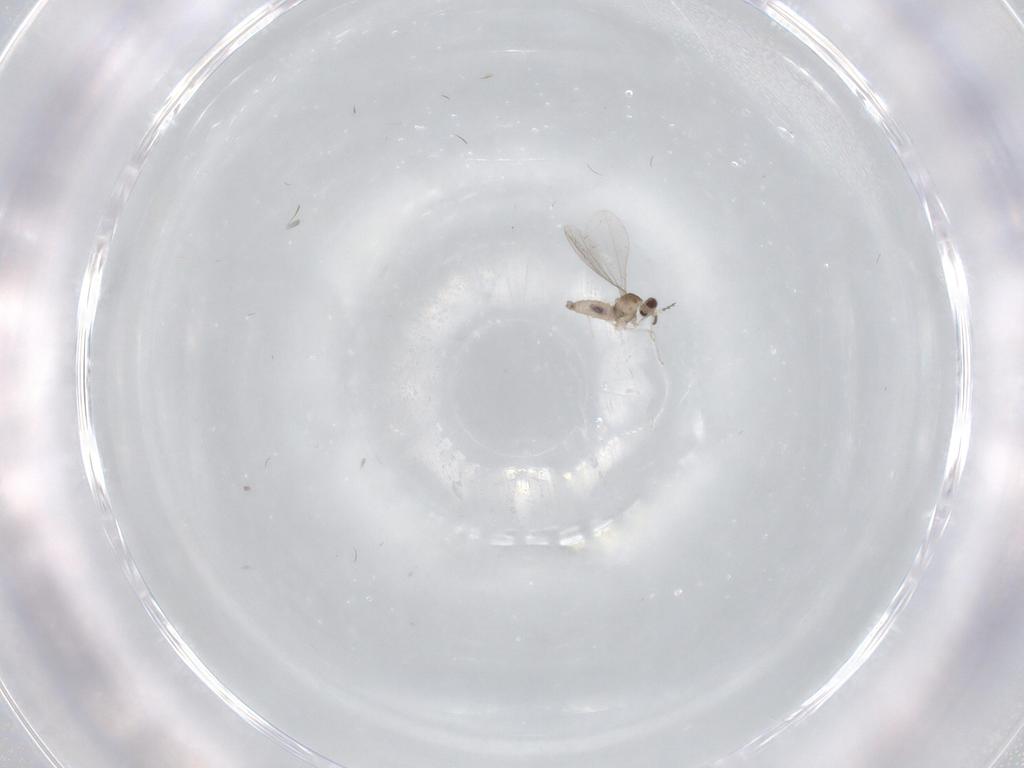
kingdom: Animalia
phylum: Arthropoda
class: Insecta
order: Diptera
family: Cecidomyiidae
